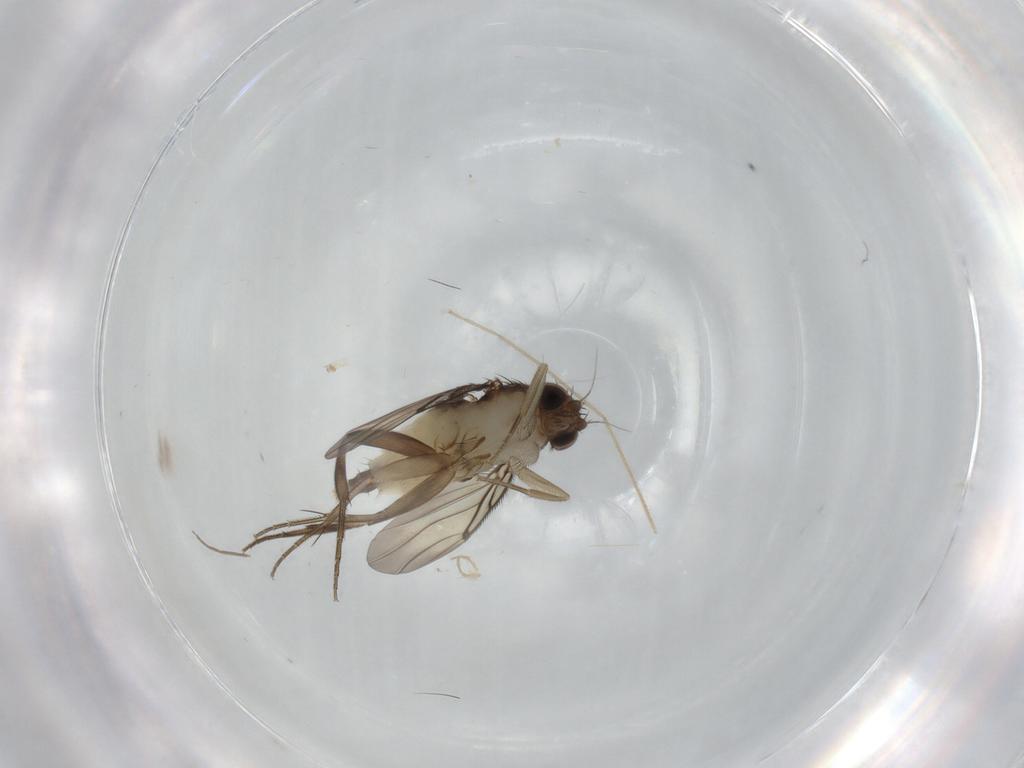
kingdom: Animalia
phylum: Arthropoda
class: Insecta
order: Diptera
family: Phoridae
